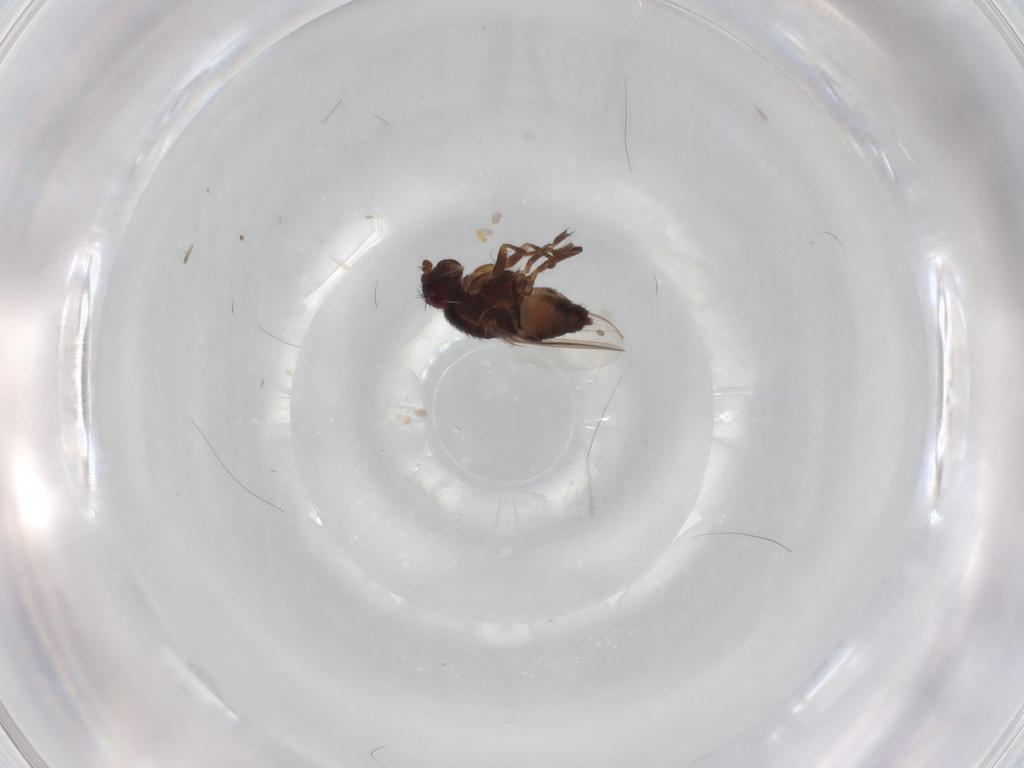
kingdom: Animalia
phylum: Arthropoda
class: Insecta
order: Diptera
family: Sphaeroceridae
